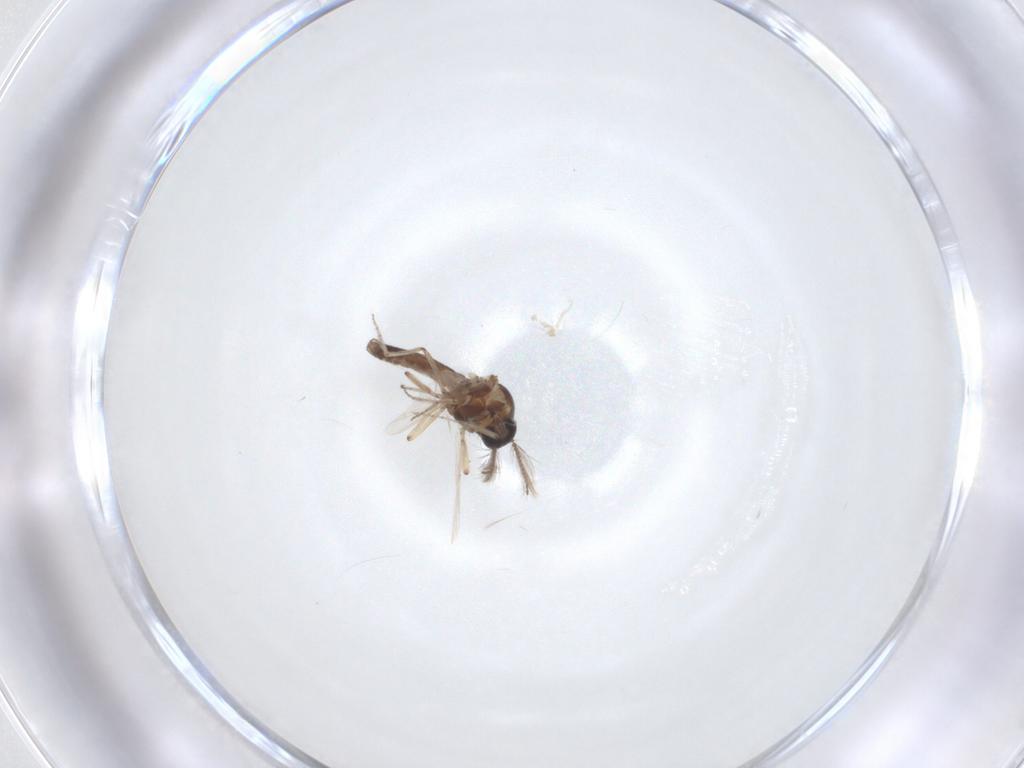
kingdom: Animalia
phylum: Arthropoda
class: Insecta
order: Diptera
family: Ceratopogonidae
